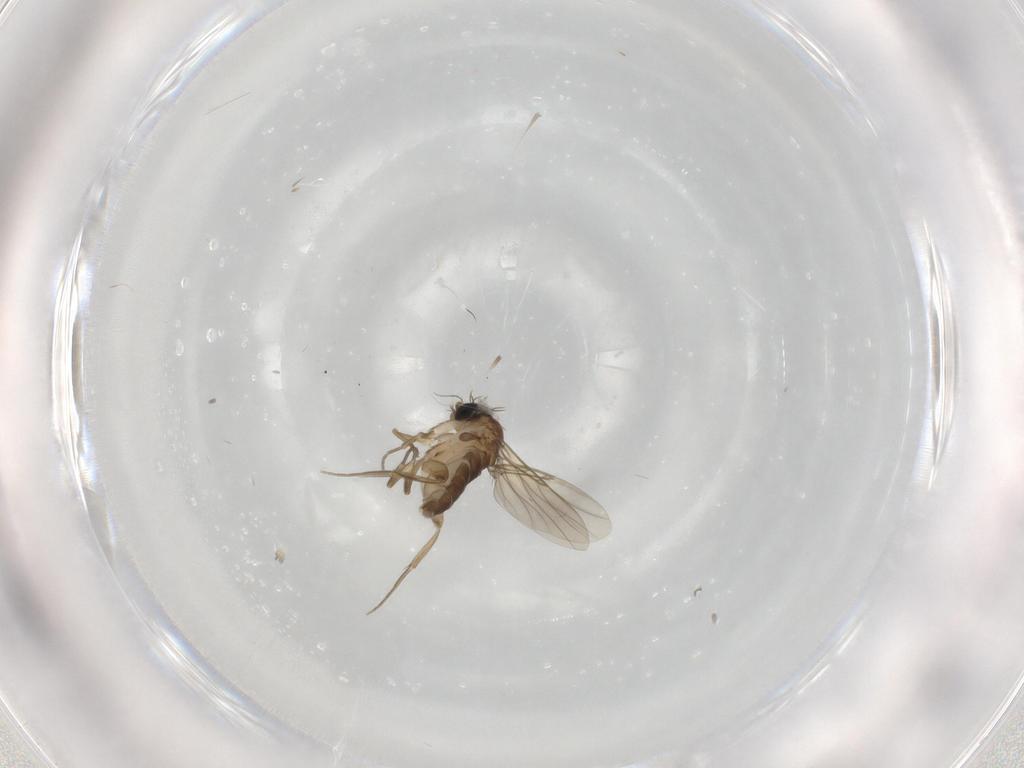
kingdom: Animalia
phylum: Arthropoda
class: Insecta
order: Diptera
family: Phoridae
